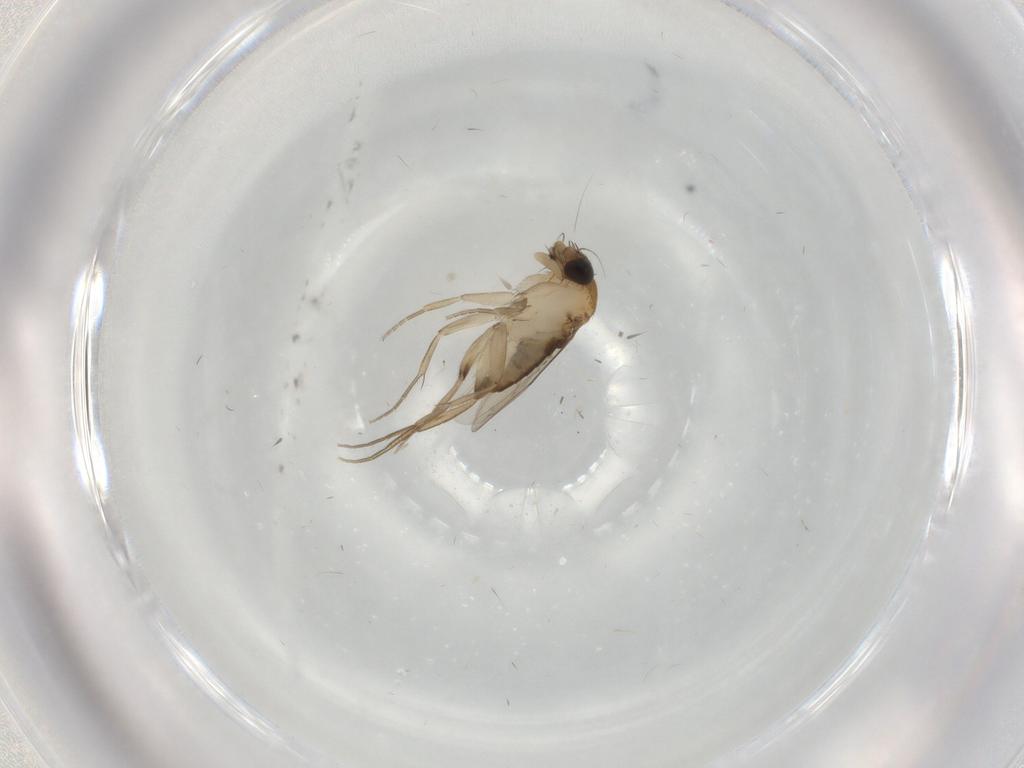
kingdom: Animalia
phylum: Arthropoda
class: Insecta
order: Diptera
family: Phoridae
